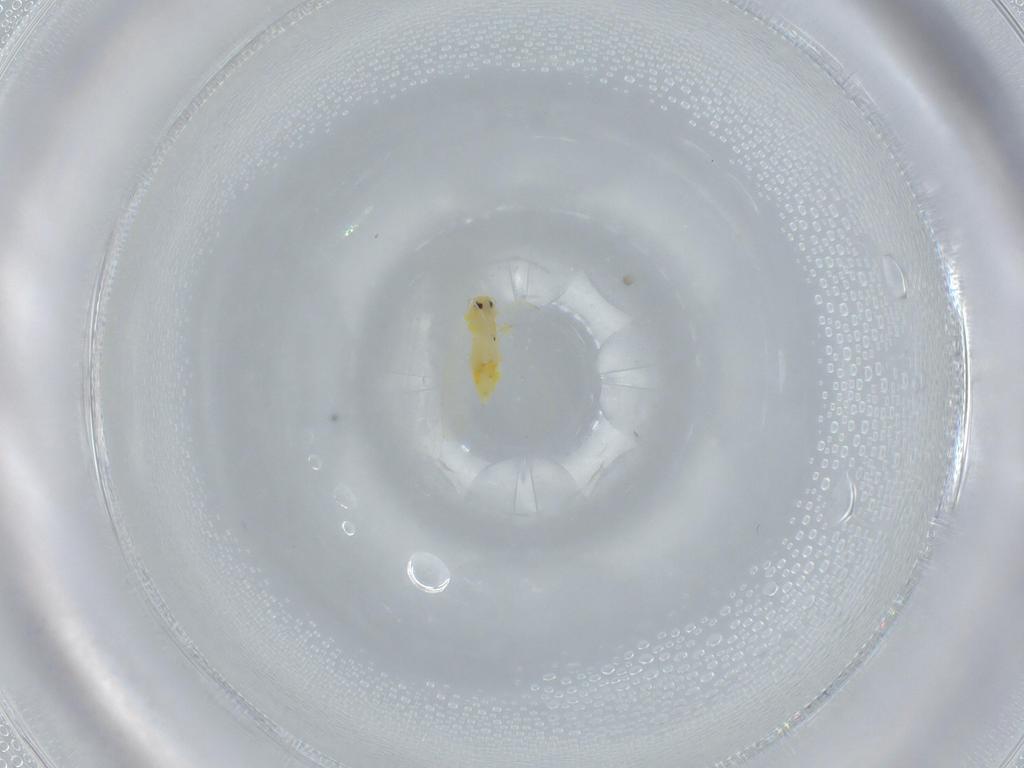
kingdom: Animalia
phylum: Arthropoda
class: Insecta
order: Hemiptera
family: Aleyrodidae
